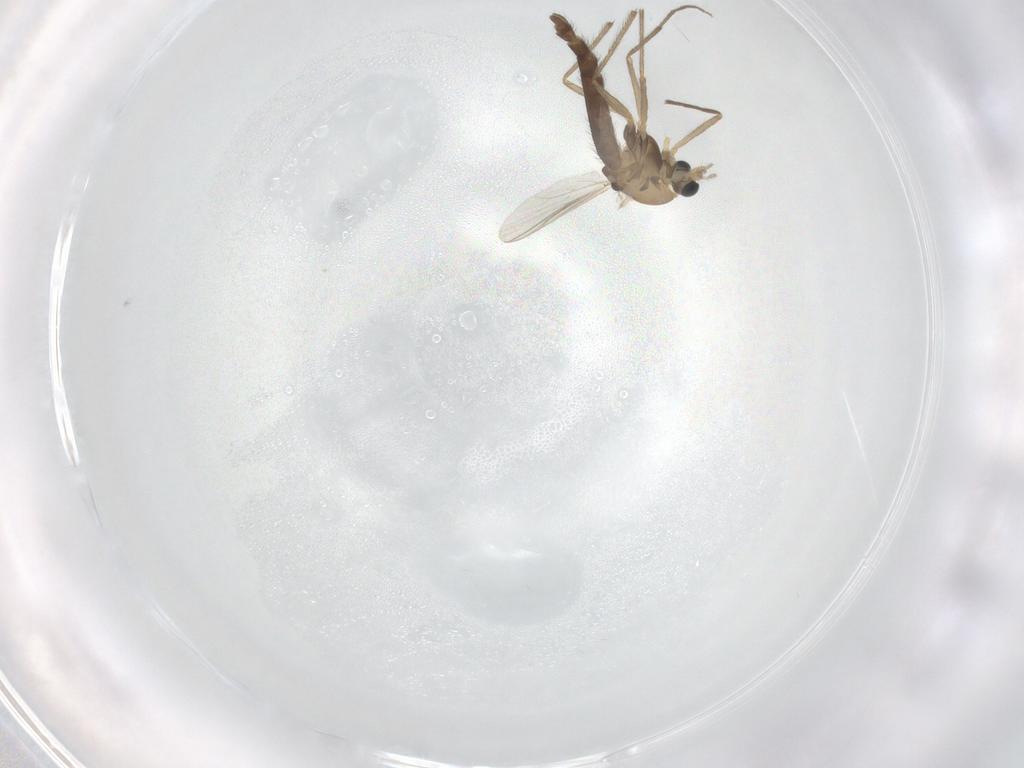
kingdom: Animalia
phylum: Arthropoda
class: Insecta
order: Diptera
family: Chironomidae
